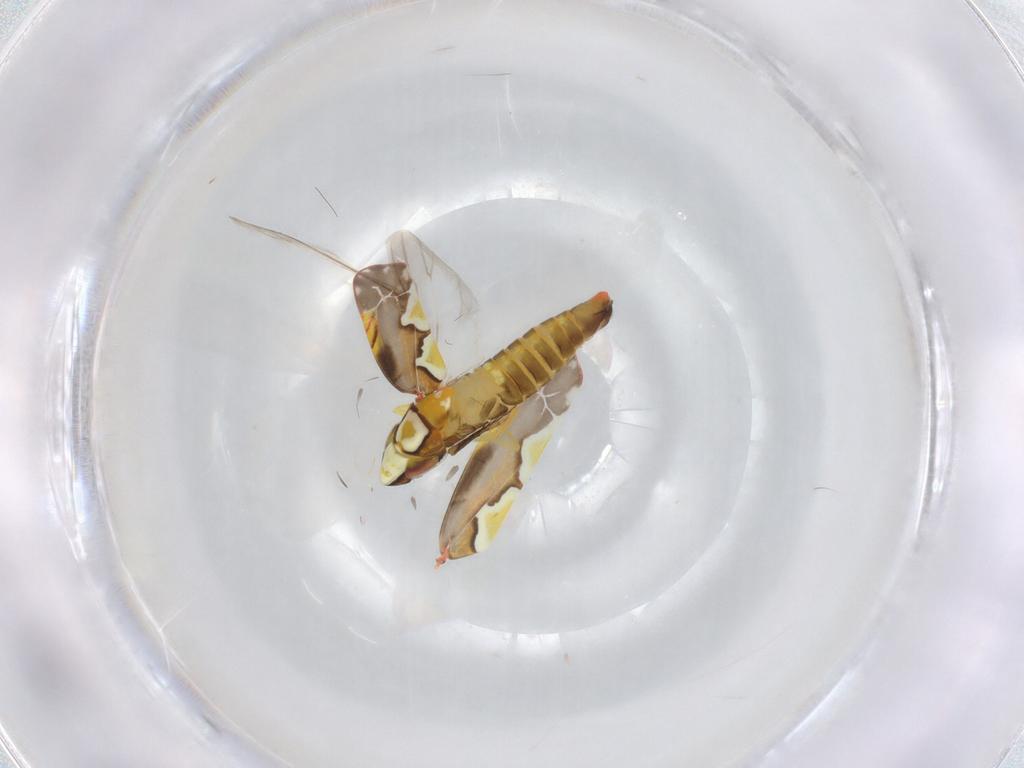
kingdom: Animalia
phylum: Arthropoda
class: Insecta
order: Hemiptera
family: Cicadellidae
